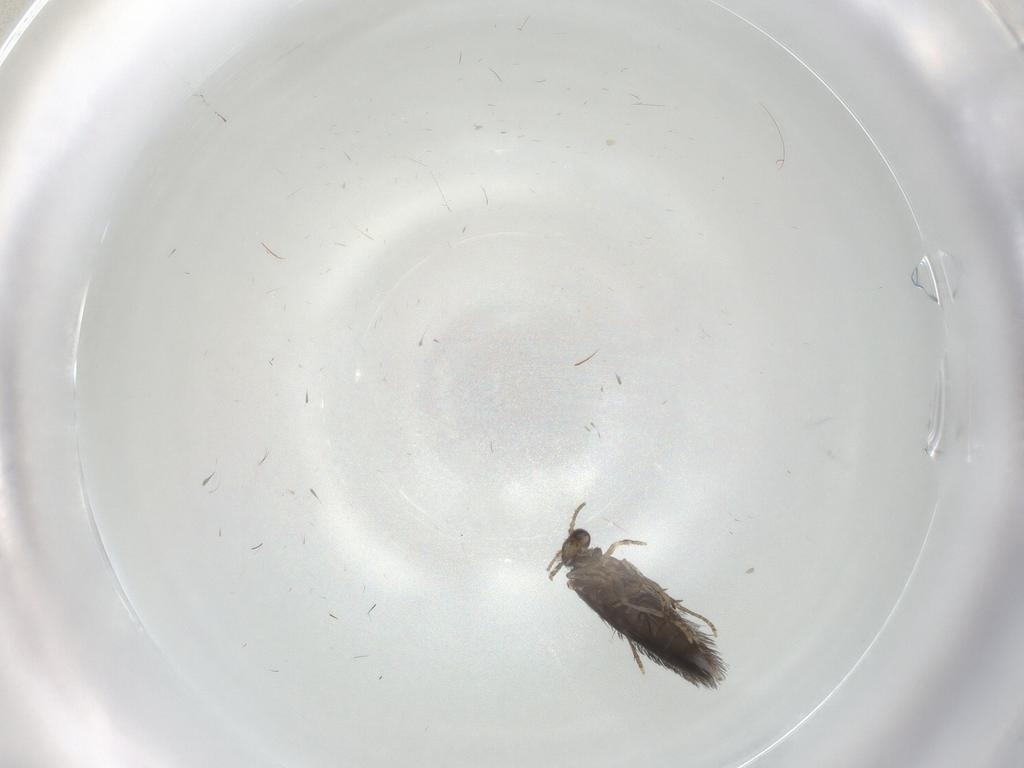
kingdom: Animalia
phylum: Arthropoda
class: Insecta
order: Trichoptera
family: Hydroptilidae
